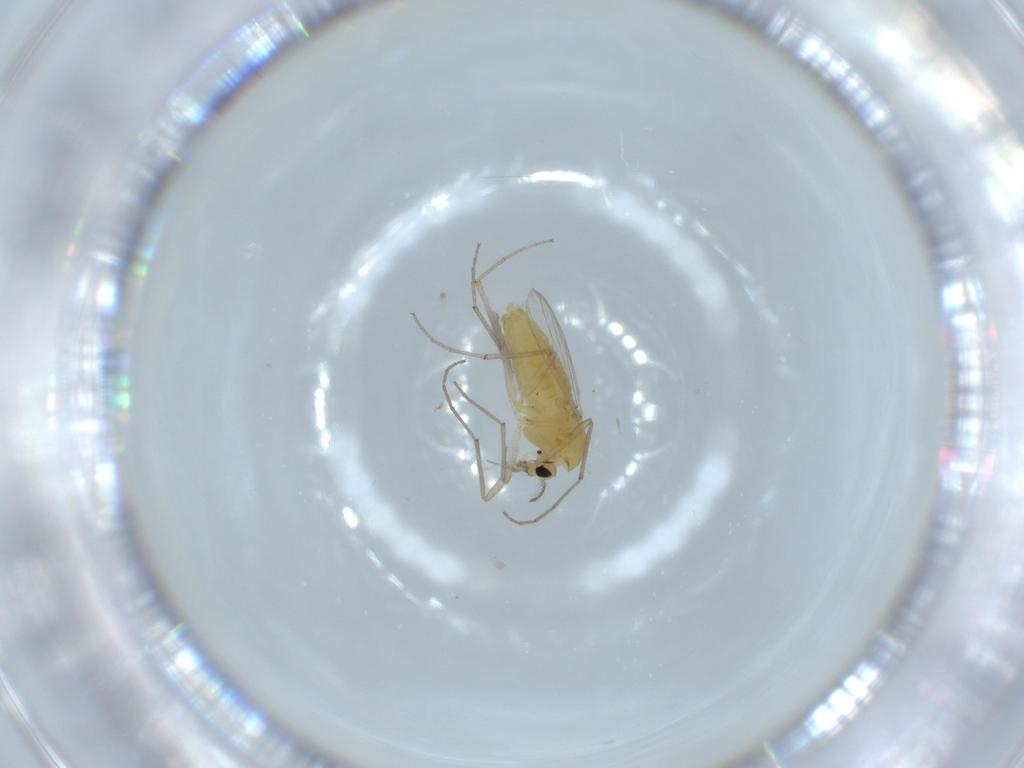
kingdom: Animalia
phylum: Arthropoda
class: Insecta
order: Diptera
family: Chironomidae
